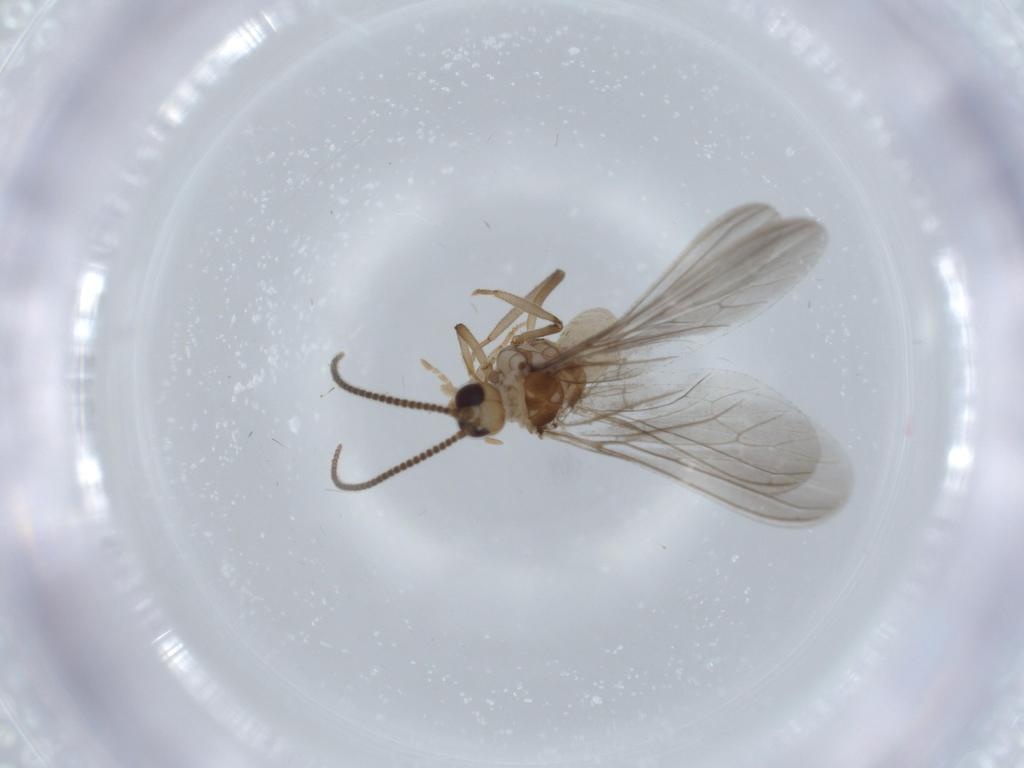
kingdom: Animalia
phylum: Arthropoda
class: Insecta
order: Neuroptera
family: Coniopterygidae
